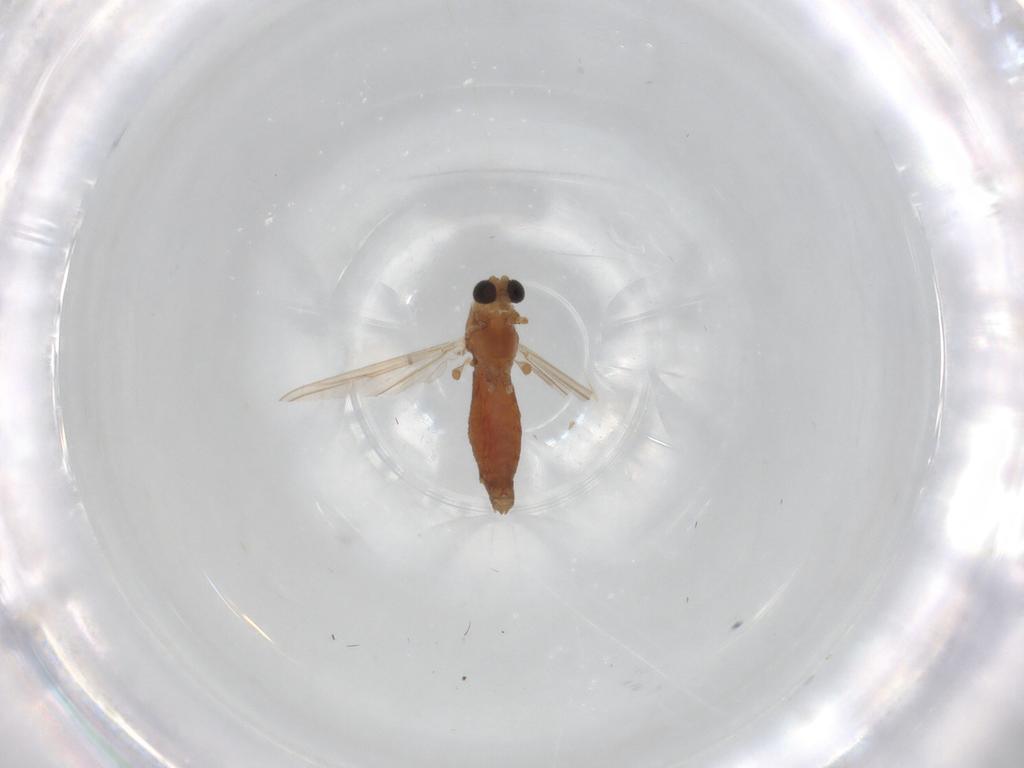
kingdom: Animalia
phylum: Arthropoda
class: Insecta
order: Diptera
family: Chironomidae
